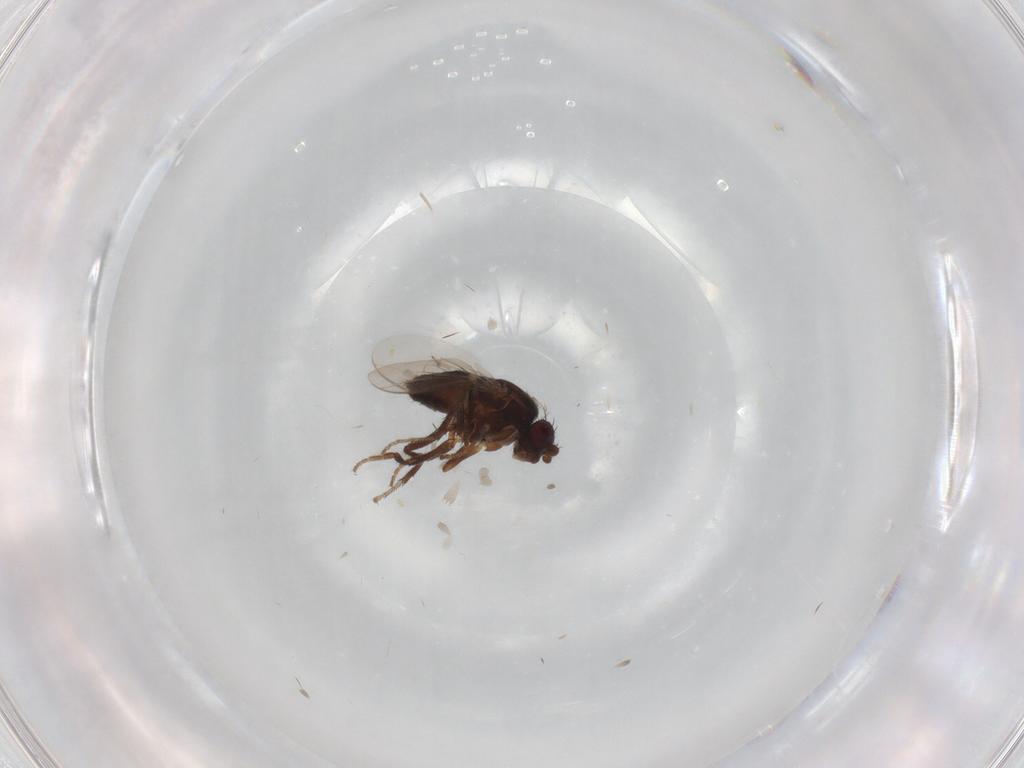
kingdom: Animalia
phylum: Arthropoda
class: Insecta
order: Diptera
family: Sphaeroceridae
